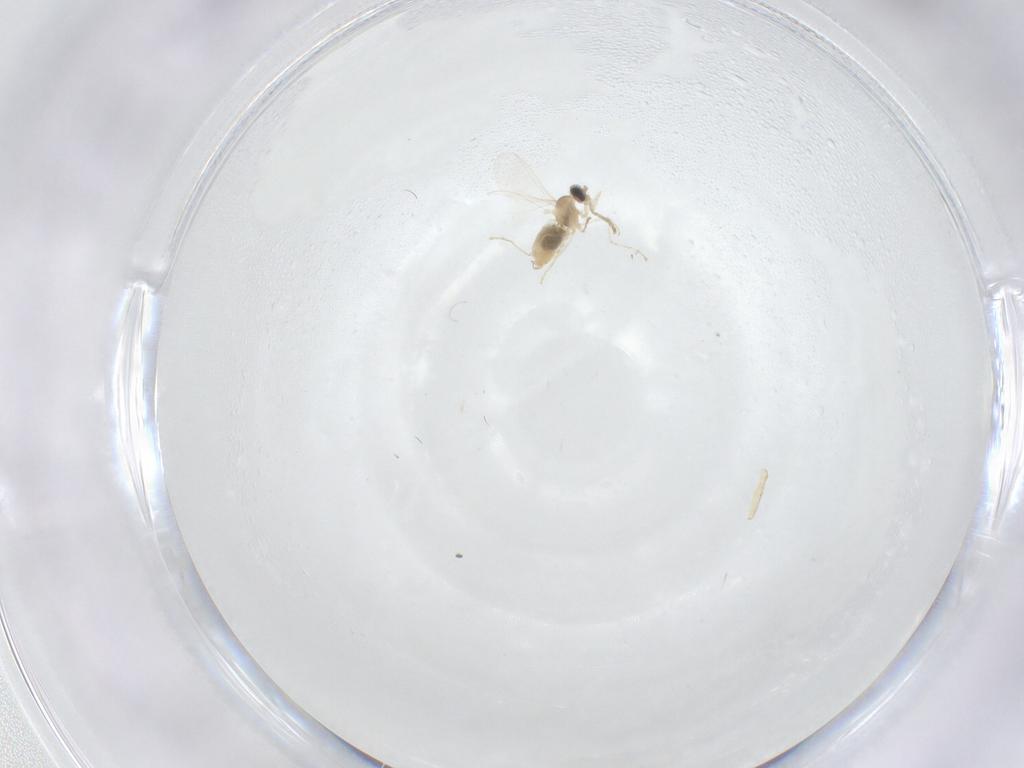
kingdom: Animalia
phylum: Arthropoda
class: Insecta
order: Diptera
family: Cecidomyiidae
